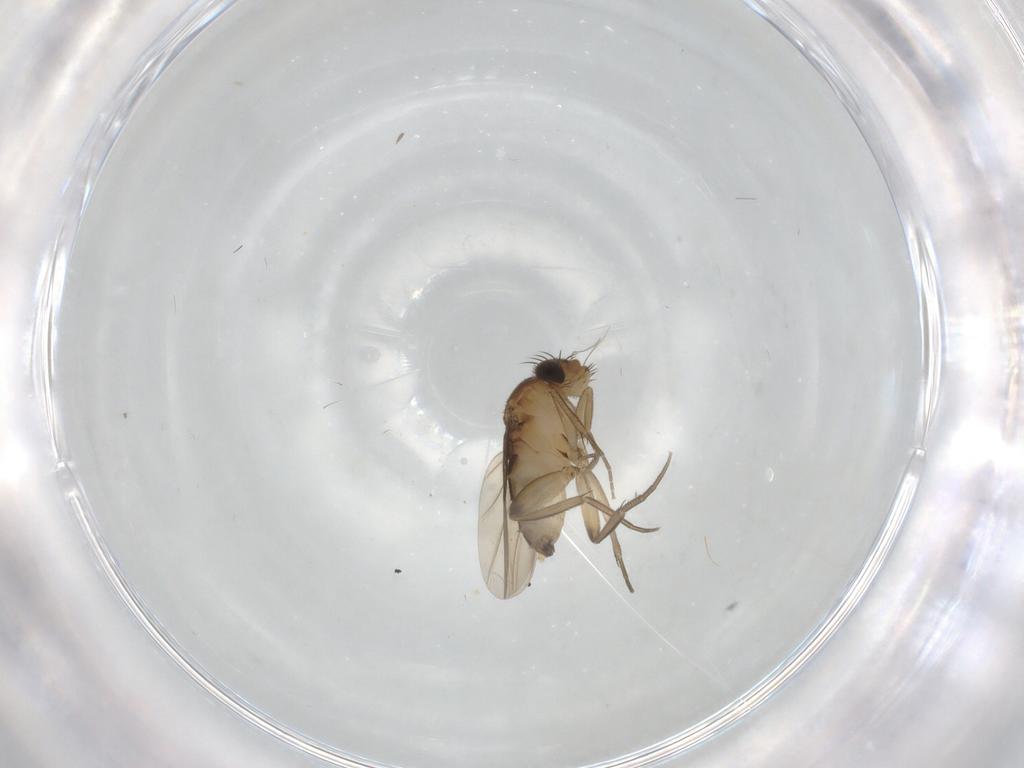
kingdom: Animalia
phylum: Arthropoda
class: Insecta
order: Diptera
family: Phoridae
